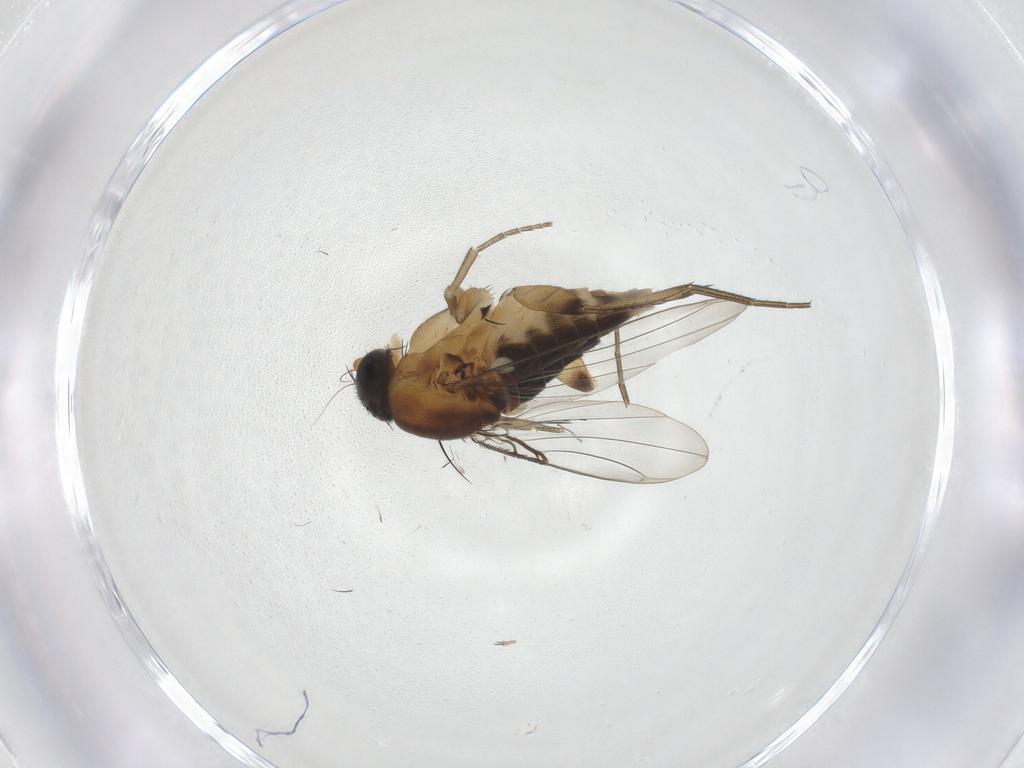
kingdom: Animalia
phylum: Arthropoda
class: Insecta
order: Diptera
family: Phoridae
